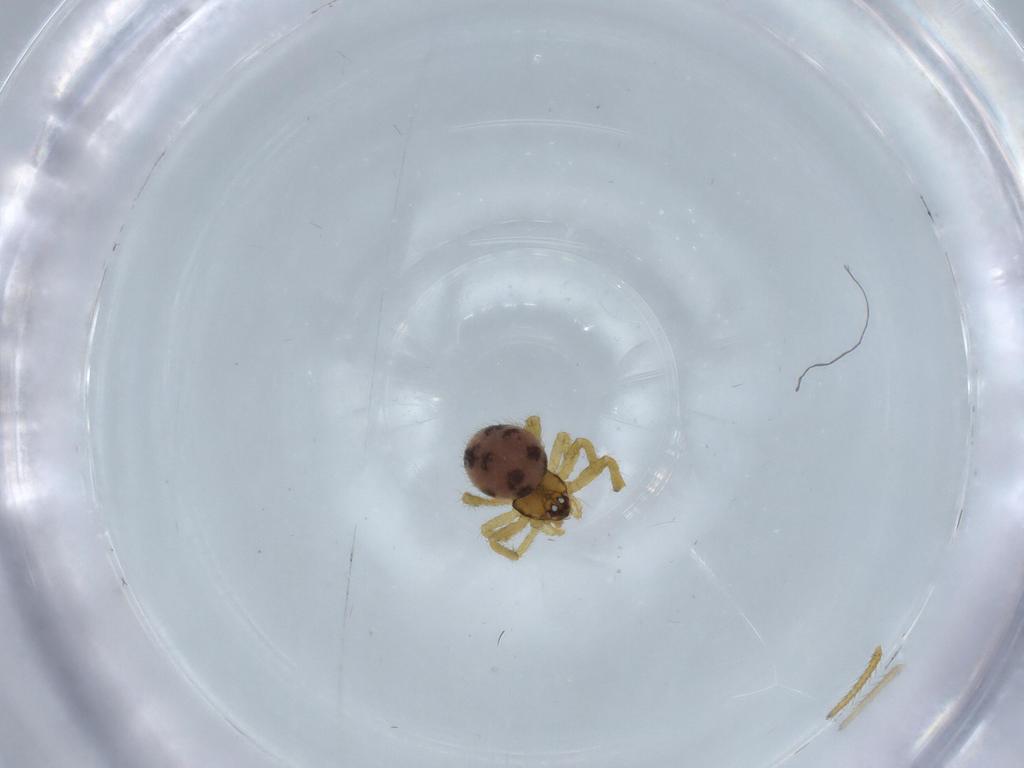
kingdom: Animalia
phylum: Arthropoda
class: Arachnida
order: Araneae
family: Theridiidae
